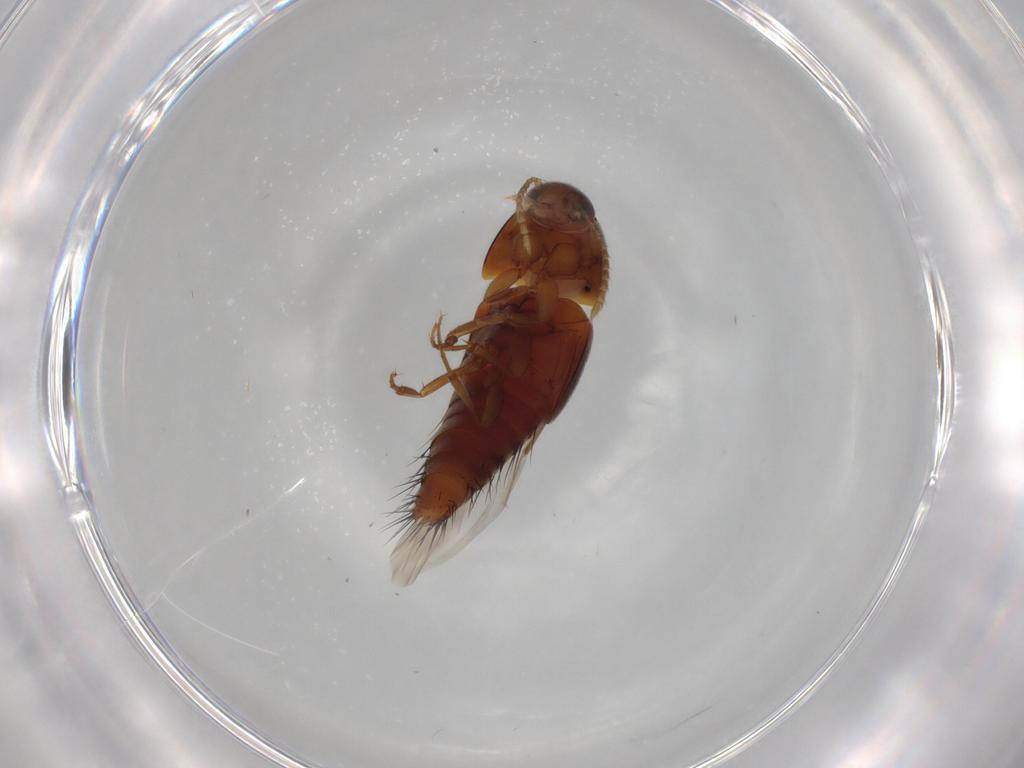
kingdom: Animalia
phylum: Arthropoda
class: Insecta
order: Coleoptera
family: Staphylinidae
